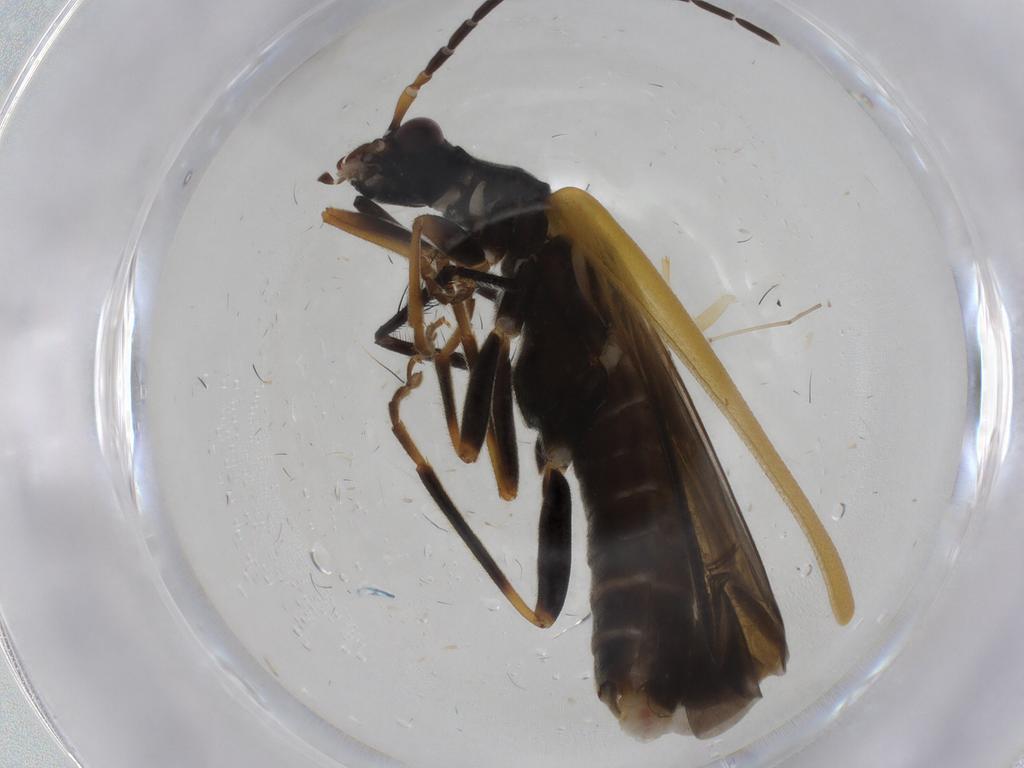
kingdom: Animalia
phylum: Arthropoda
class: Insecta
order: Coleoptera
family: Cantharidae
